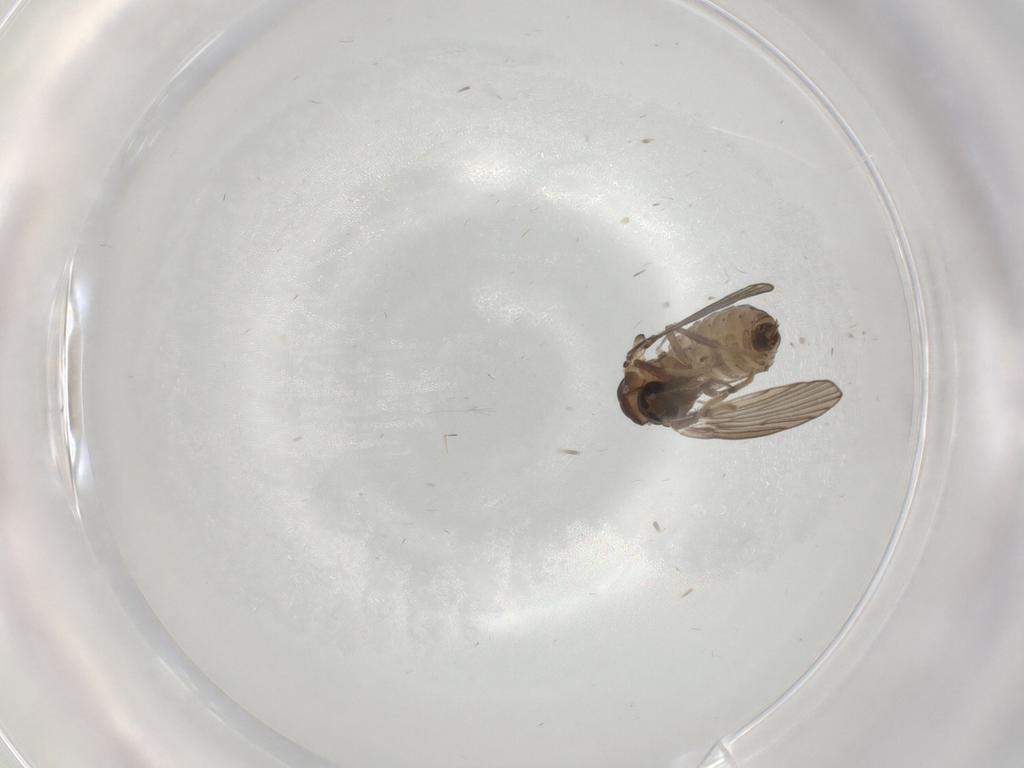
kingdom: Animalia
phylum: Arthropoda
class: Insecta
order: Diptera
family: Psychodidae
